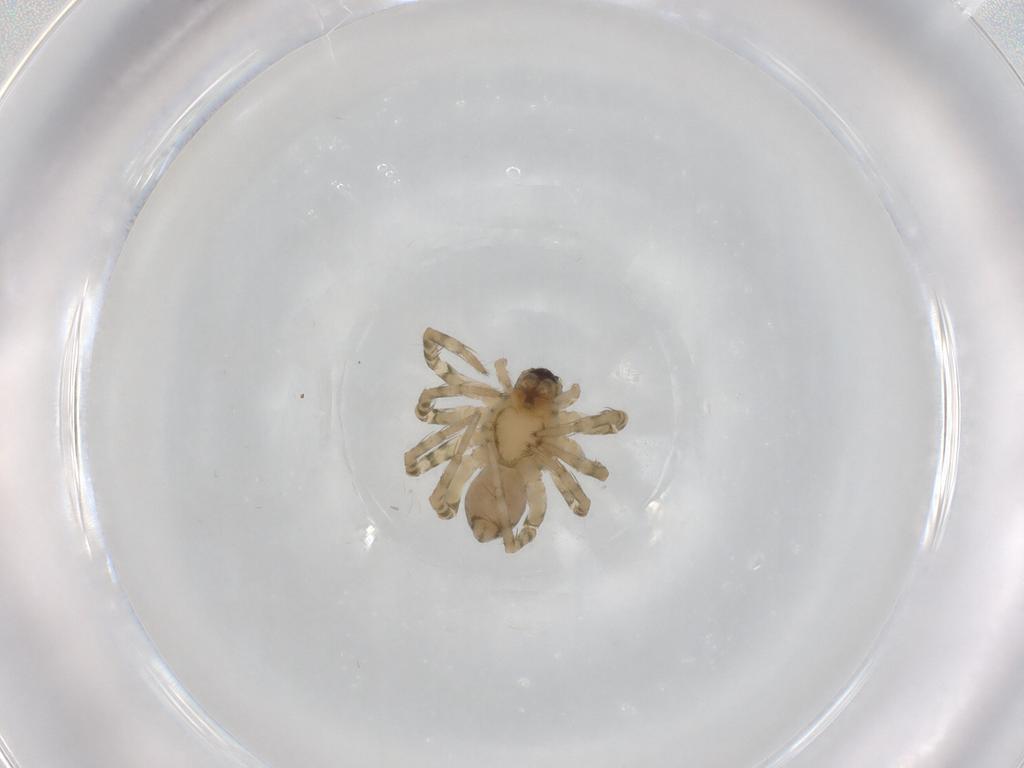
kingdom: Animalia
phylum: Arthropoda
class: Arachnida
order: Araneae
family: Lycosidae
